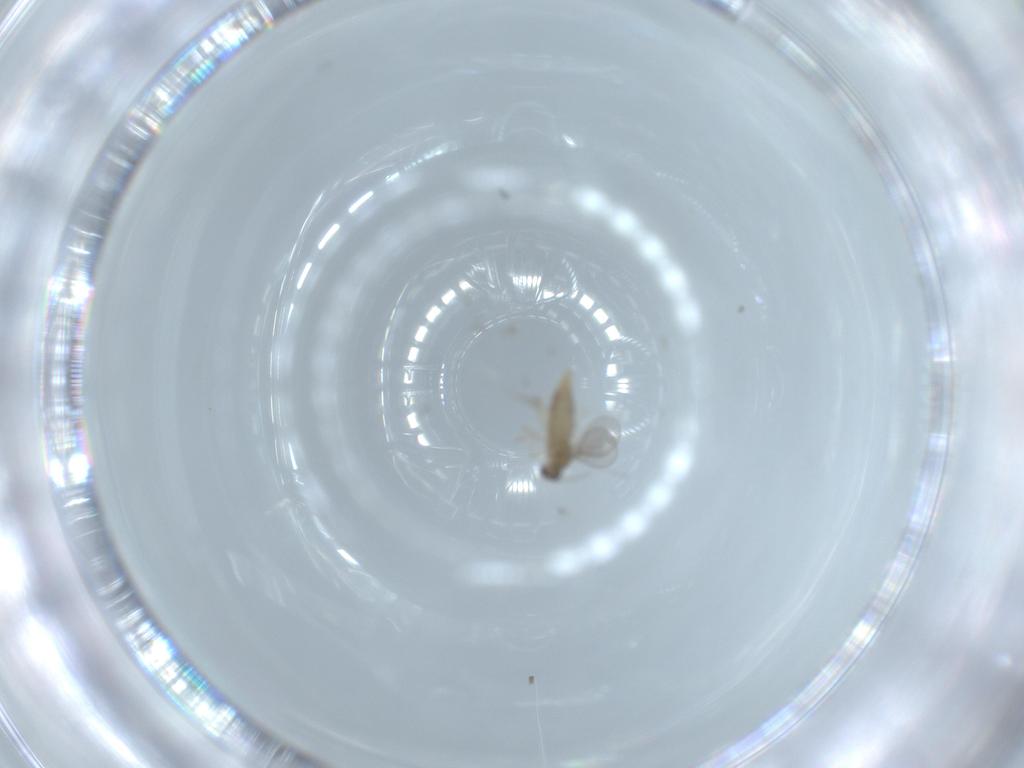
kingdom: Animalia
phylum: Arthropoda
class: Insecta
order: Diptera
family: Cecidomyiidae
